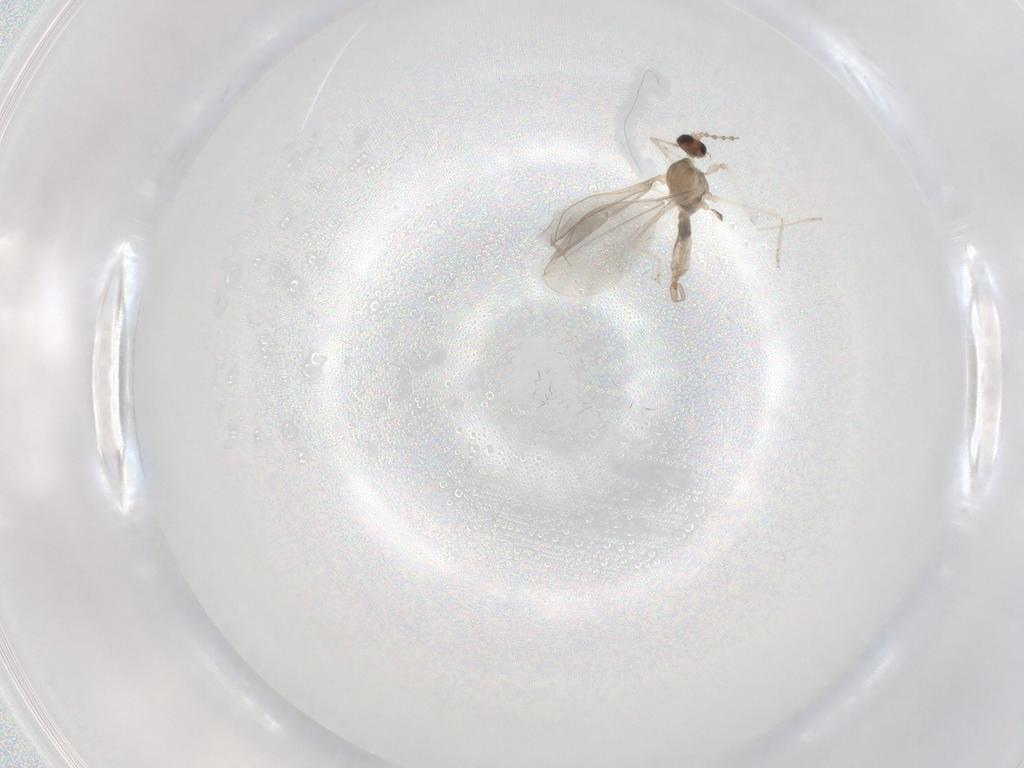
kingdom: Animalia
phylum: Arthropoda
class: Insecta
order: Diptera
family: Cecidomyiidae
